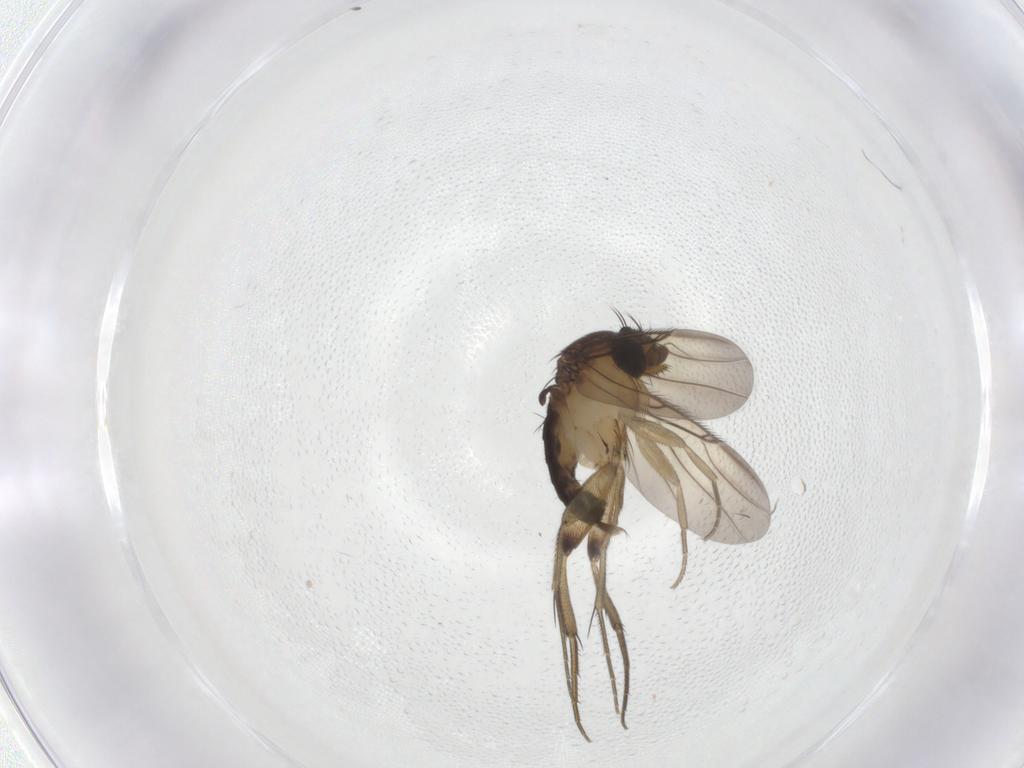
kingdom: Animalia
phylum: Arthropoda
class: Insecta
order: Diptera
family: Phoridae
